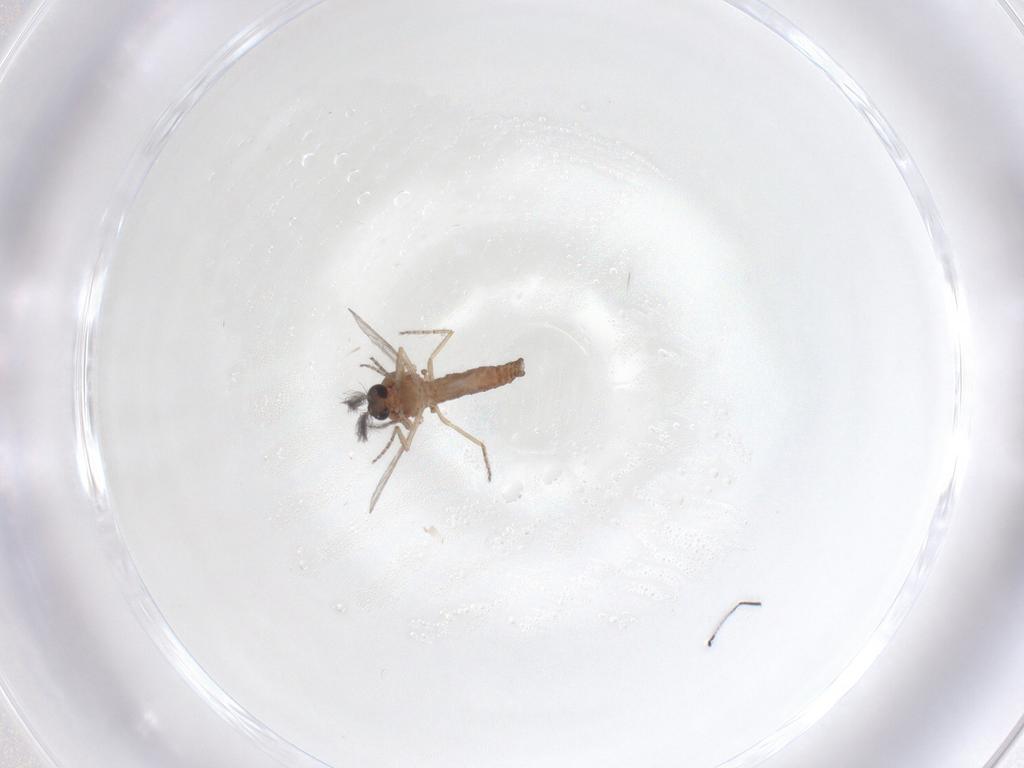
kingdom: Animalia
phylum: Arthropoda
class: Insecta
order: Diptera
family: Ceratopogonidae
